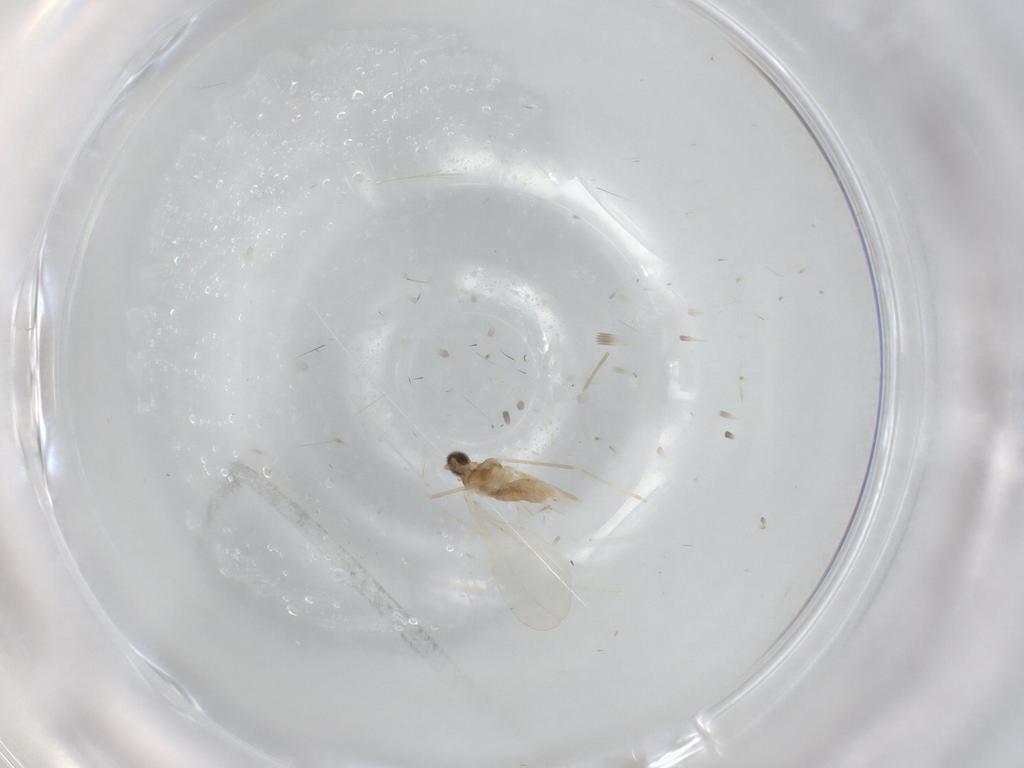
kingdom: Animalia
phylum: Arthropoda
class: Insecta
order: Diptera
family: Cecidomyiidae
